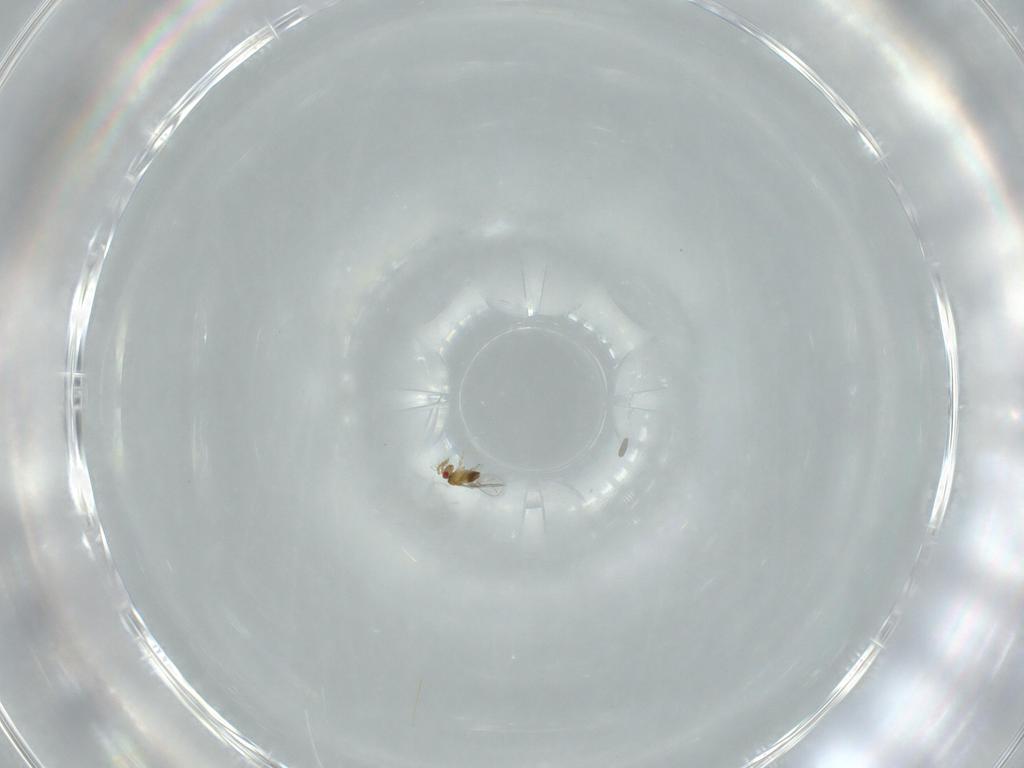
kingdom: Animalia
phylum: Arthropoda
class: Insecta
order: Hymenoptera
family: Trichogrammatidae
